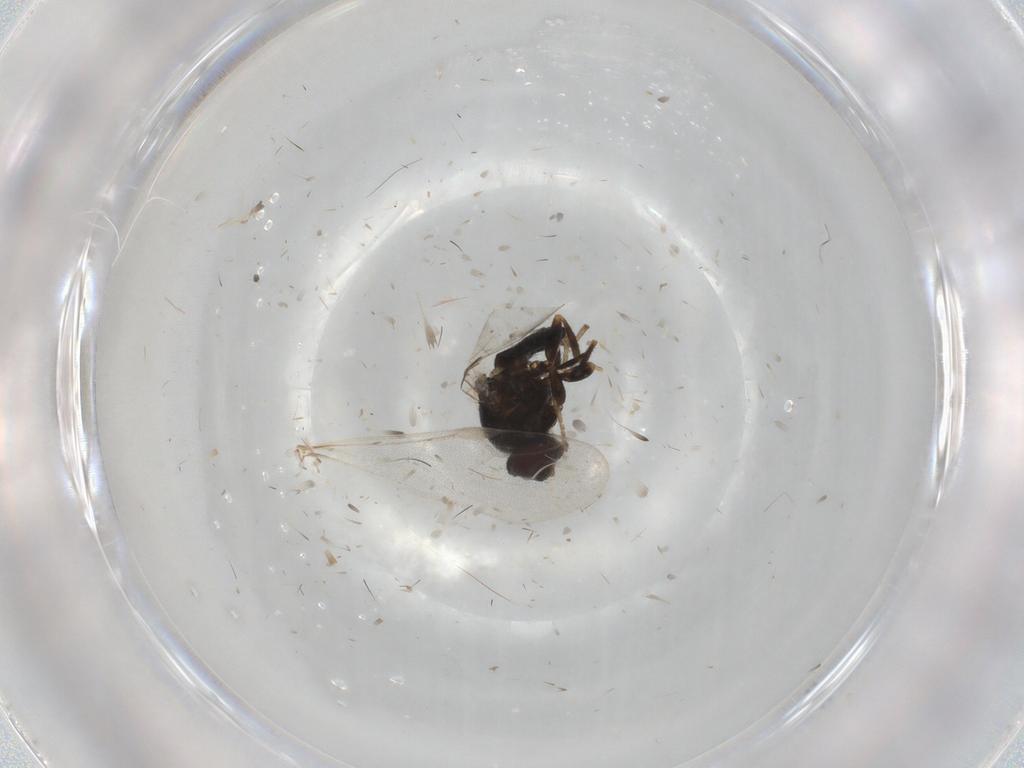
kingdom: Animalia
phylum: Arthropoda
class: Insecta
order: Diptera
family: Chloropidae
